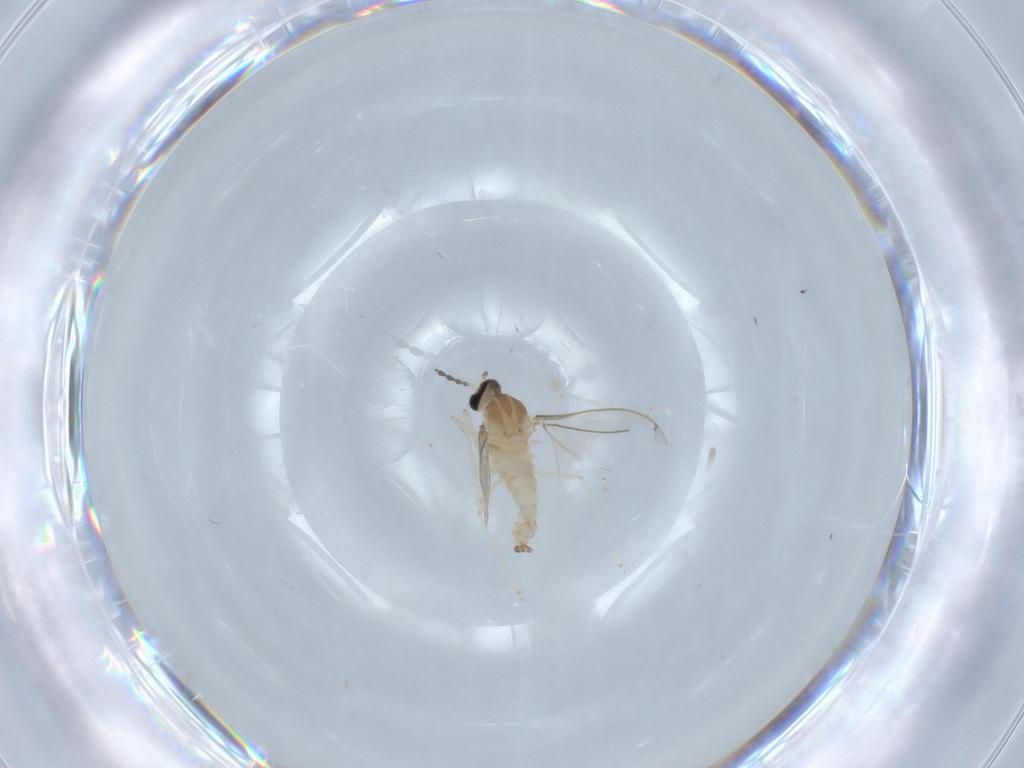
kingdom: Animalia
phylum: Arthropoda
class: Insecta
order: Diptera
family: Cecidomyiidae
